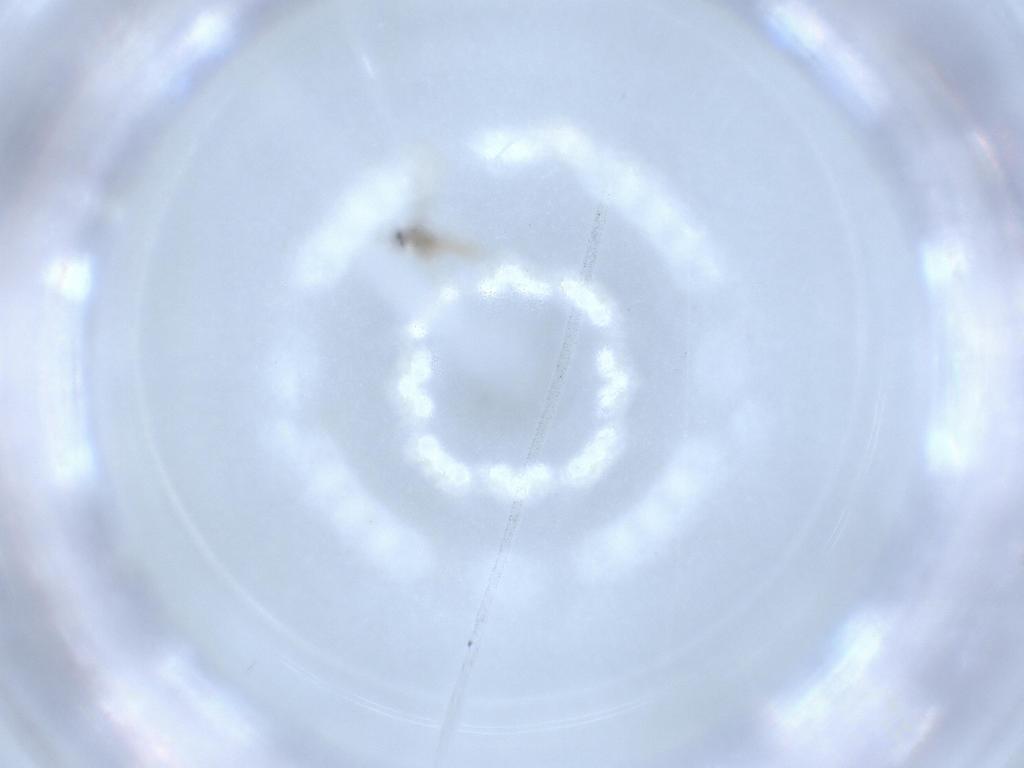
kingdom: Animalia
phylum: Arthropoda
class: Insecta
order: Diptera
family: Cecidomyiidae
